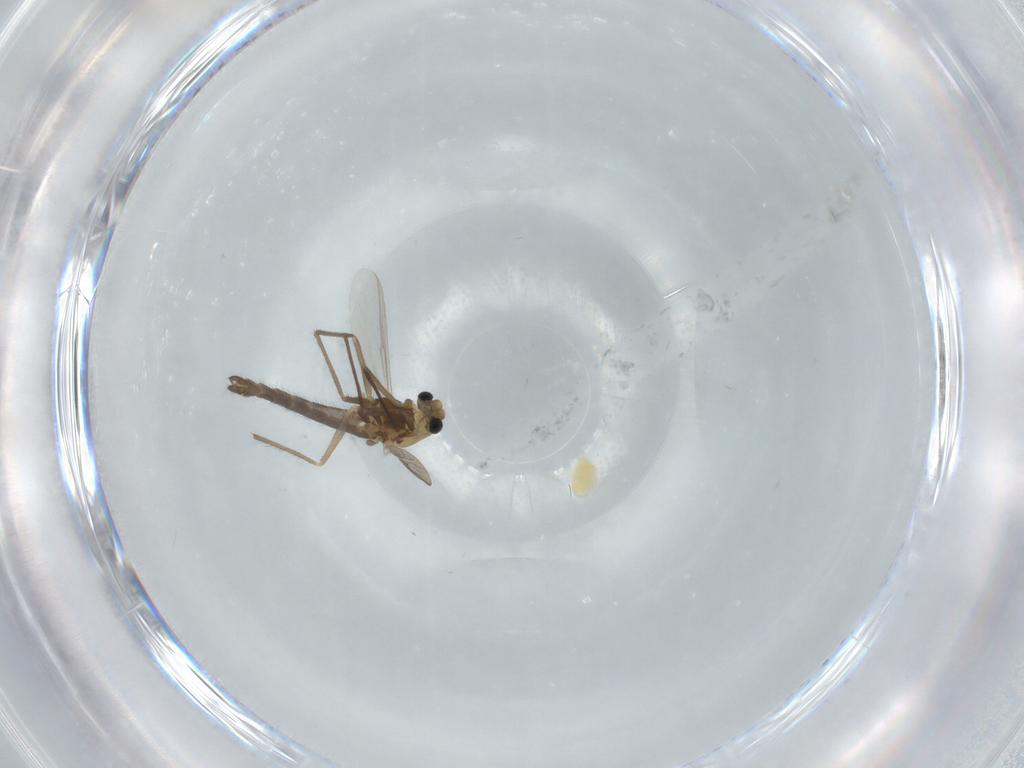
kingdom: Animalia
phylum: Arthropoda
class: Insecta
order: Diptera
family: Chironomidae
